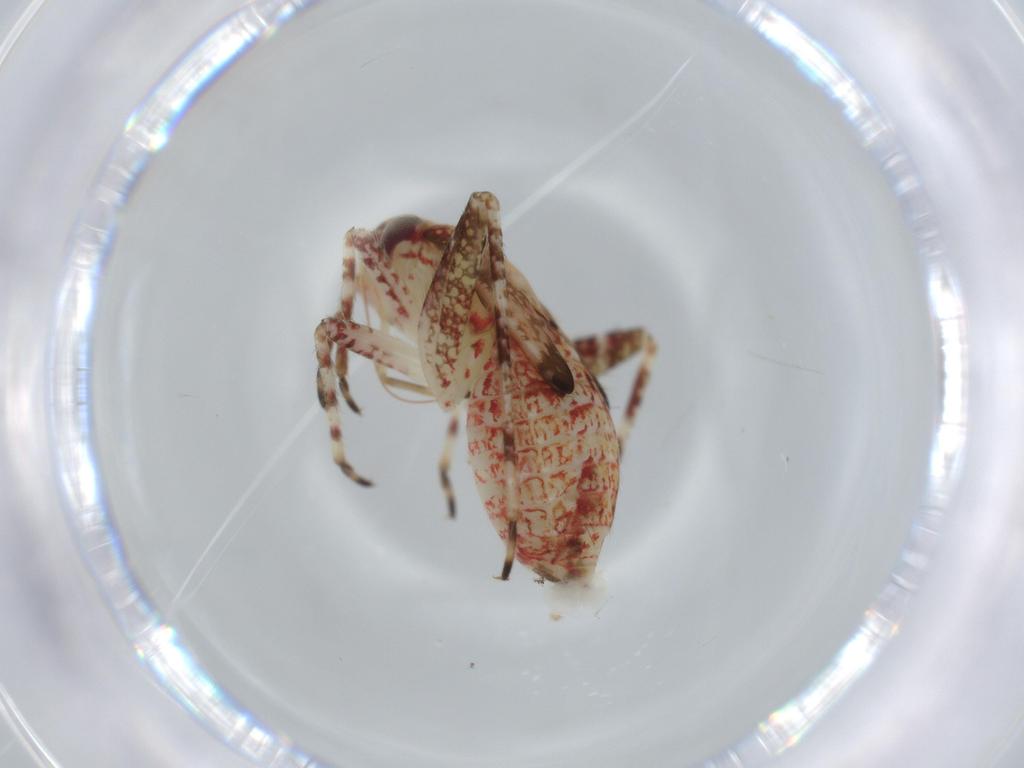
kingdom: Animalia
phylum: Arthropoda
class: Insecta
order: Hemiptera
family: Miridae
